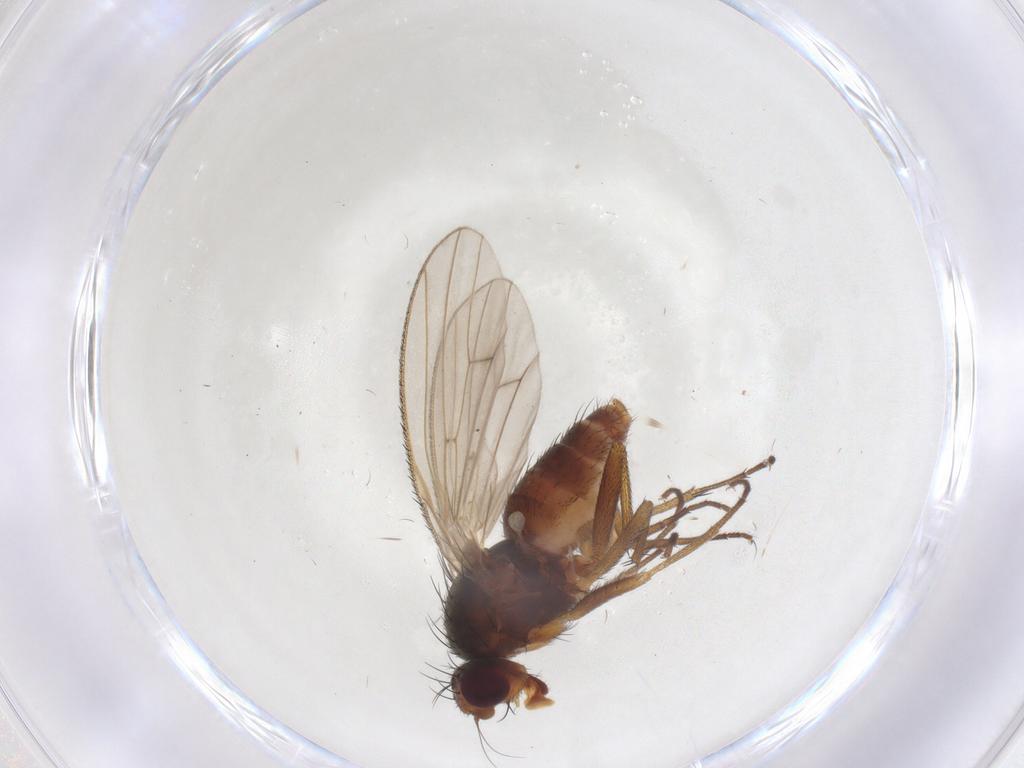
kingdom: Animalia
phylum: Arthropoda
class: Insecta
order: Diptera
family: Heleomyzidae
